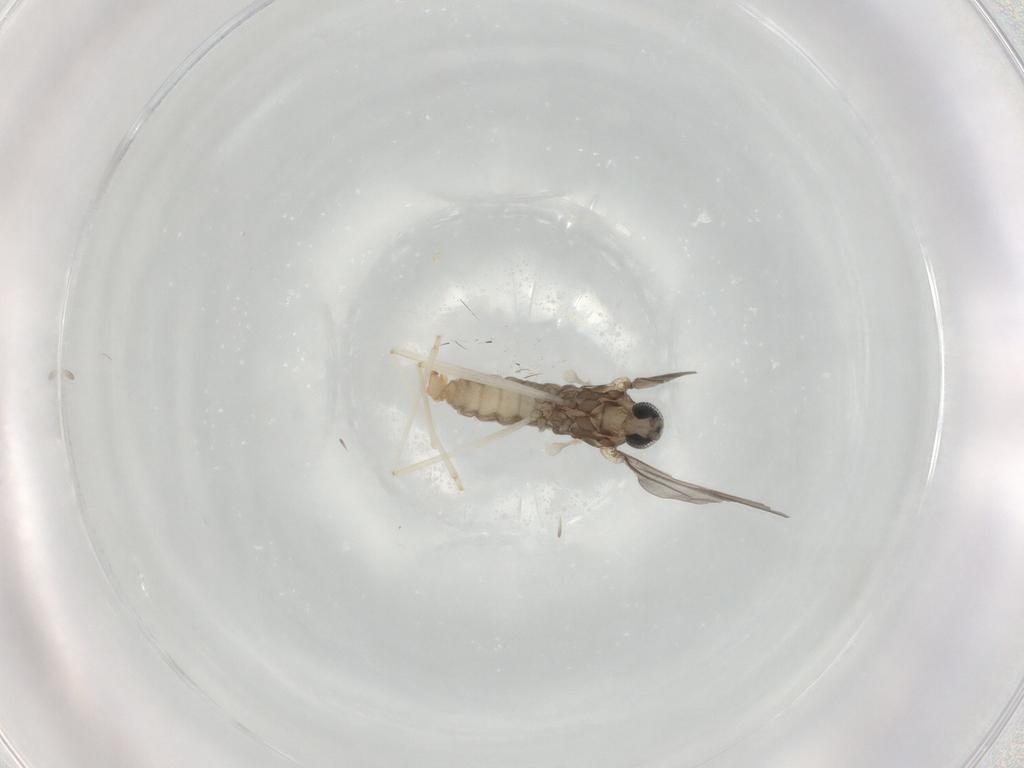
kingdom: Animalia
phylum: Arthropoda
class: Insecta
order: Diptera
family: Cecidomyiidae
